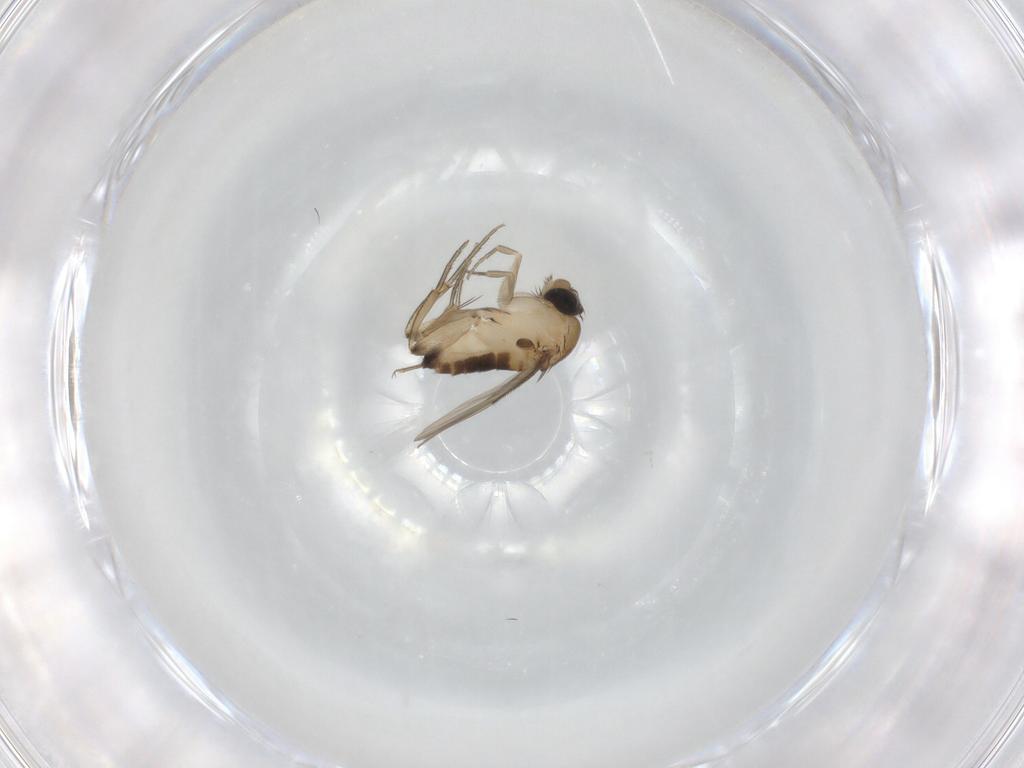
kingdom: Animalia
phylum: Arthropoda
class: Insecta
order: Diptera
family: Phoridae
